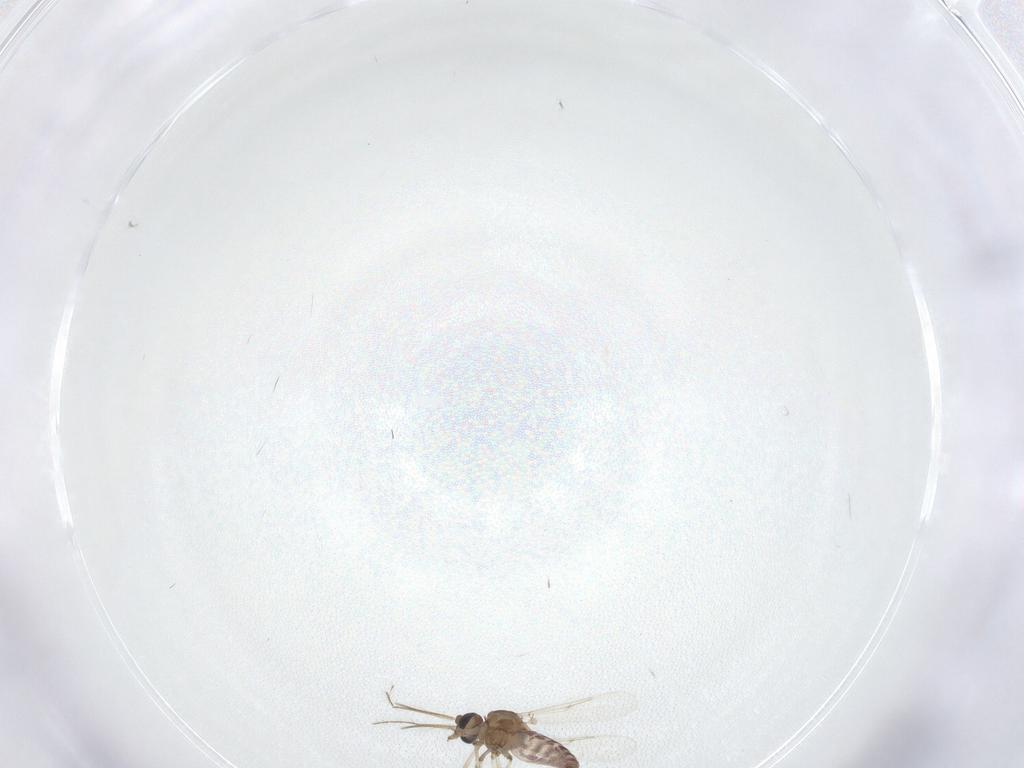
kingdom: Animalia
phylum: Arthropoda
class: Insecta
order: Diptera
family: Ceratopogonidae
